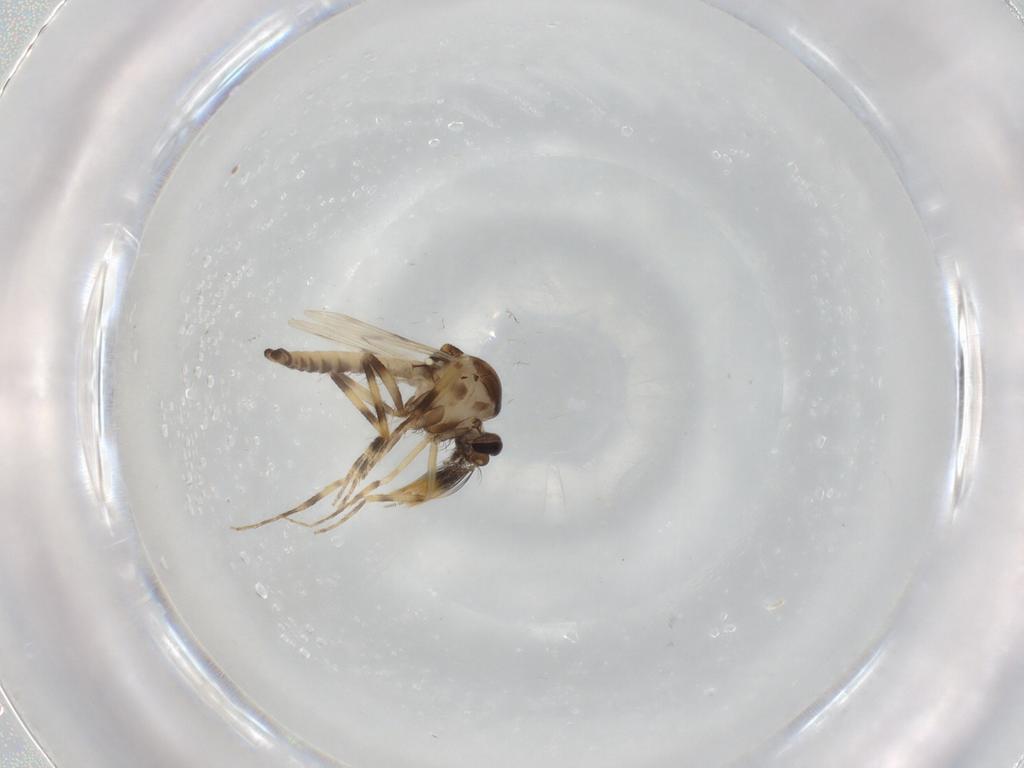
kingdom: Animalia
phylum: Arthropoda
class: Insecta
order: Diptera
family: Ceratopogonidae
